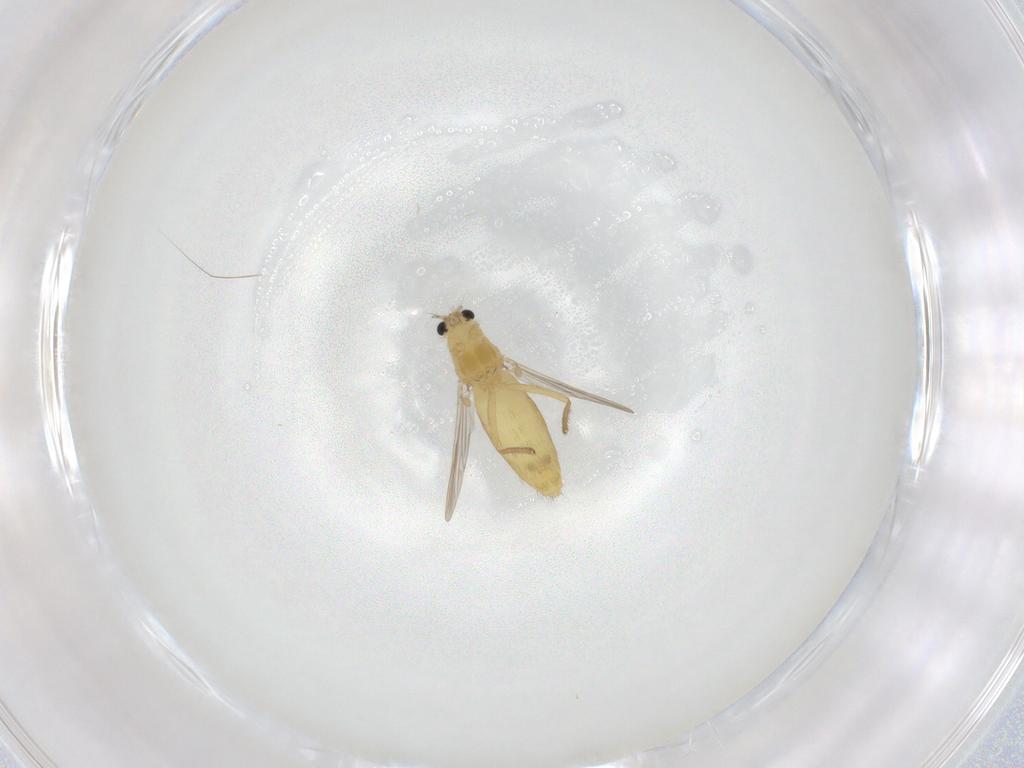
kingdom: Animalia
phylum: Arthropoda
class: Insecta
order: Diptera
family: Chironomidae
